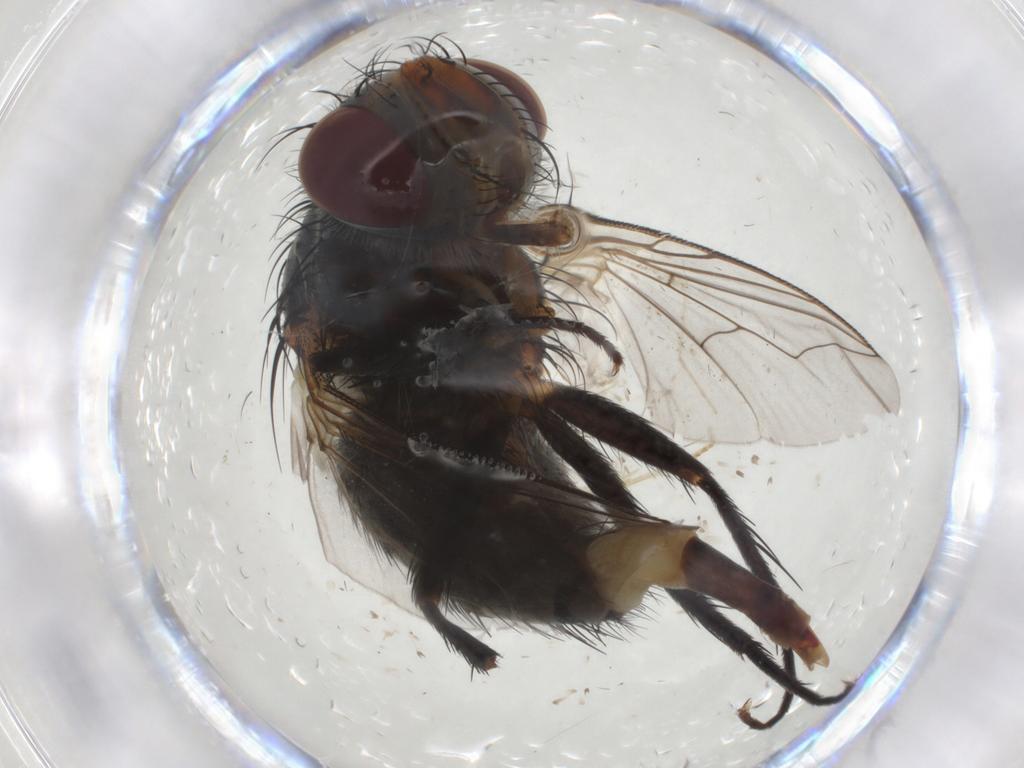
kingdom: Animalia
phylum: Arthropoda
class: Insecta
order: Diptera
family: Tachinidae
